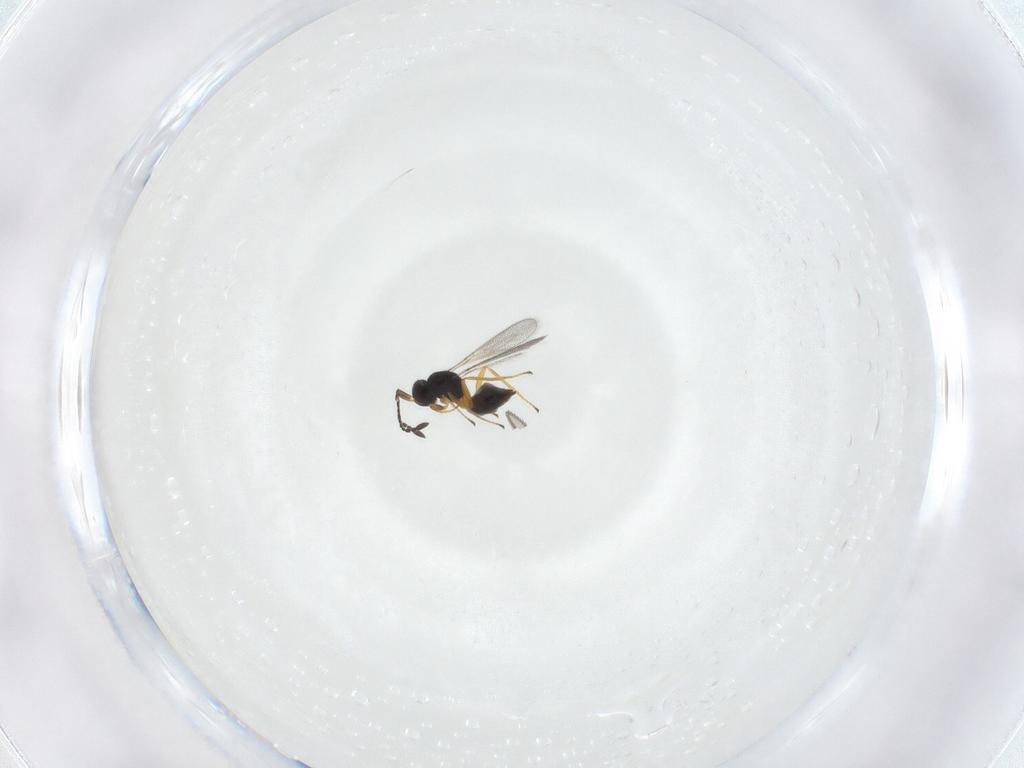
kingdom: Animalia
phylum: Arthropoda
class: Insecta
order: Hymenoptera
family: Mymaridae
